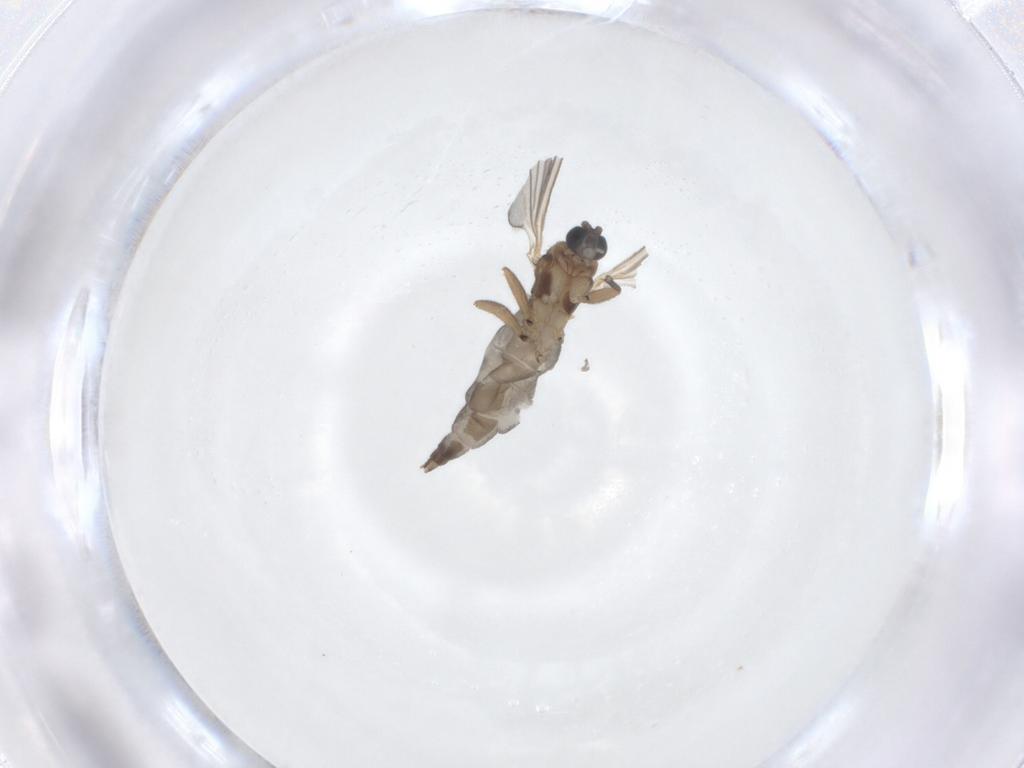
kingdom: Animalia
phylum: Arthropoda
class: Insecta
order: Diptera
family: Sciaridae
